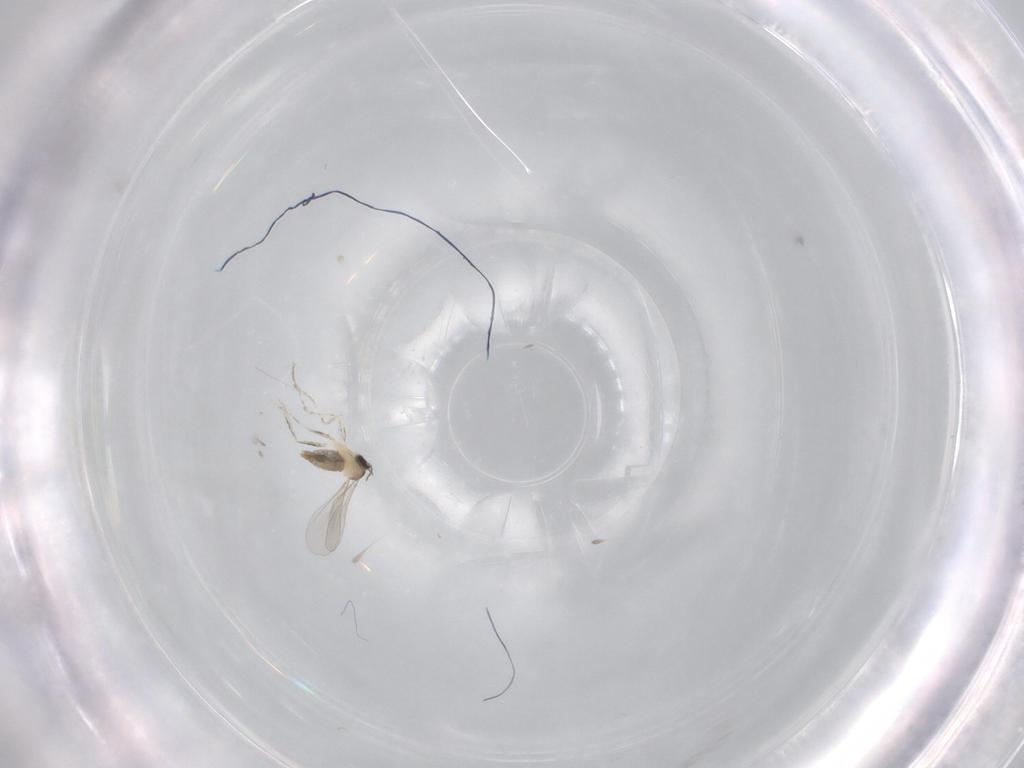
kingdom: Animalia
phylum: Arthropoda
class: Insecta
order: Diptera
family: Cecidomyiidae
